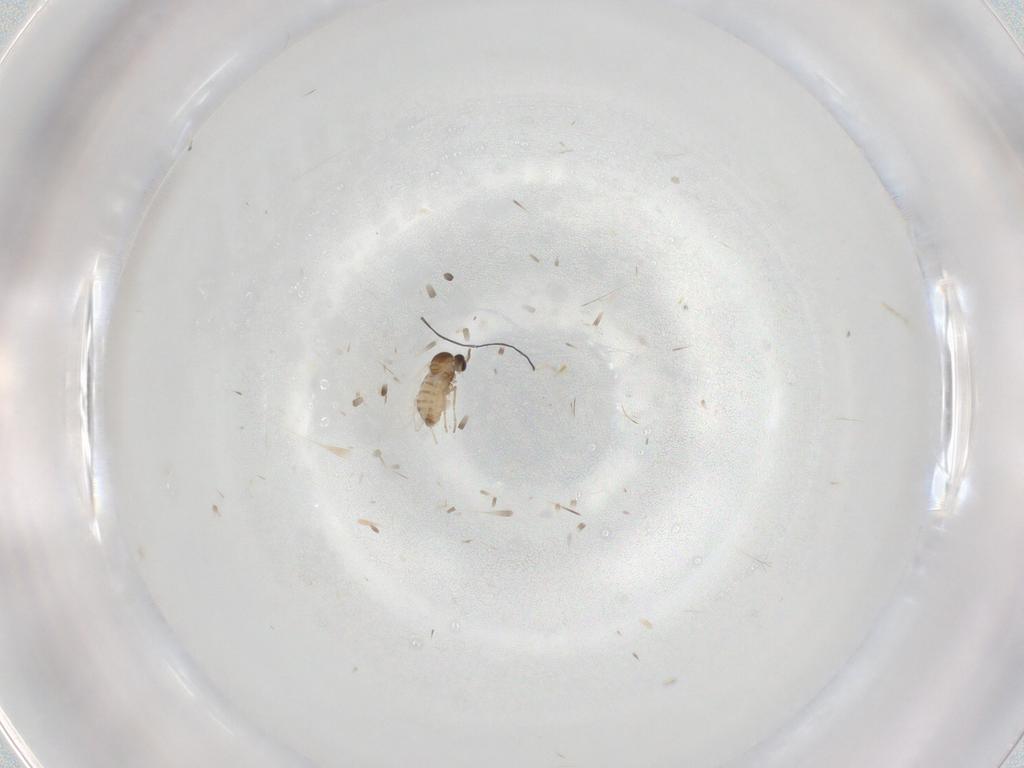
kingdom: Animalia
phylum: Arthropoda
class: Insecta
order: Diptera
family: Cecidomyiidae
